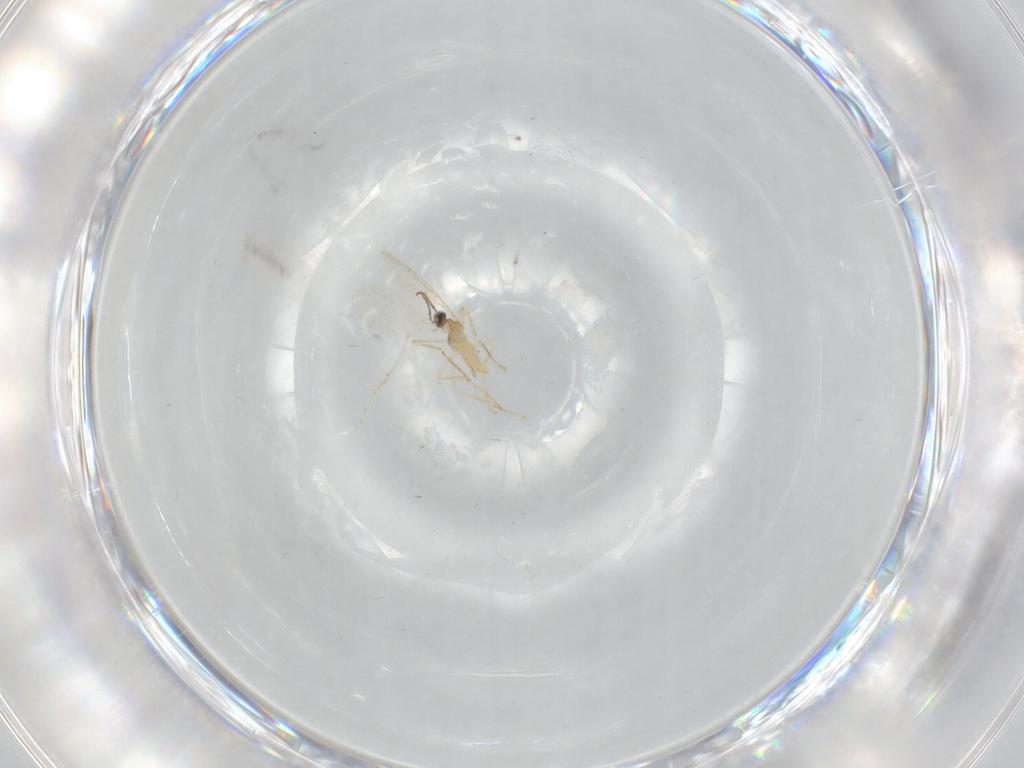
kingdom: Animalia
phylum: Arthropoda
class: Insecta
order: Diptera
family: Cecidomyiidae
